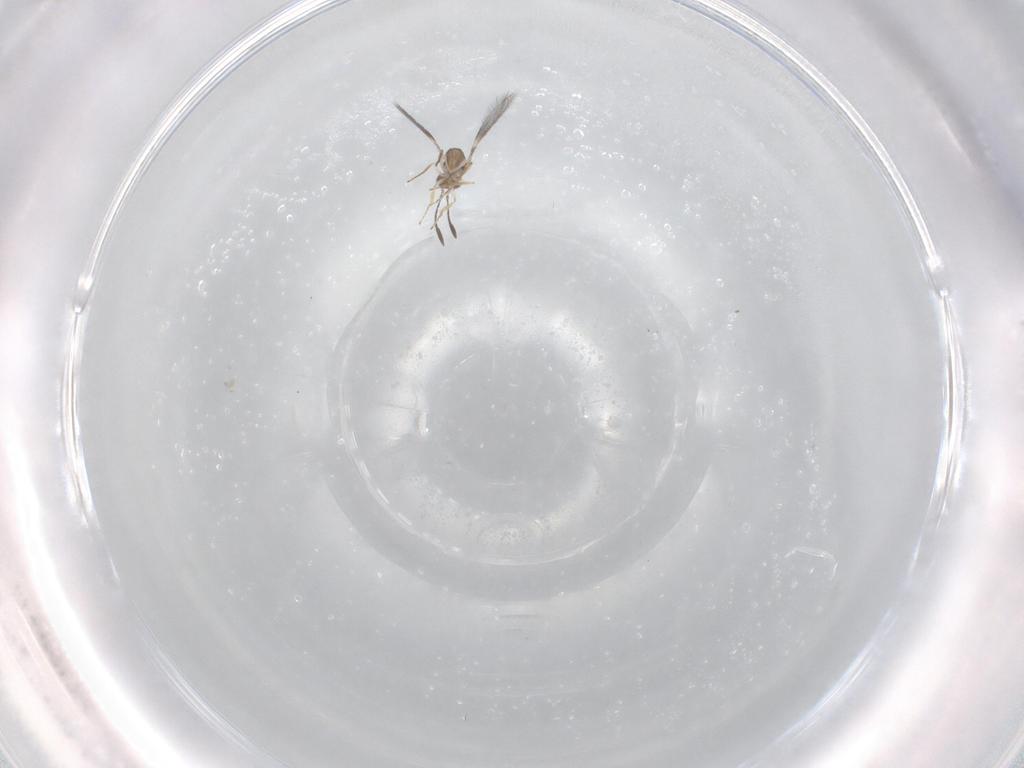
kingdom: Animalia
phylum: Arthropoda
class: Insecta
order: Hymenoptera
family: Mymaridae
